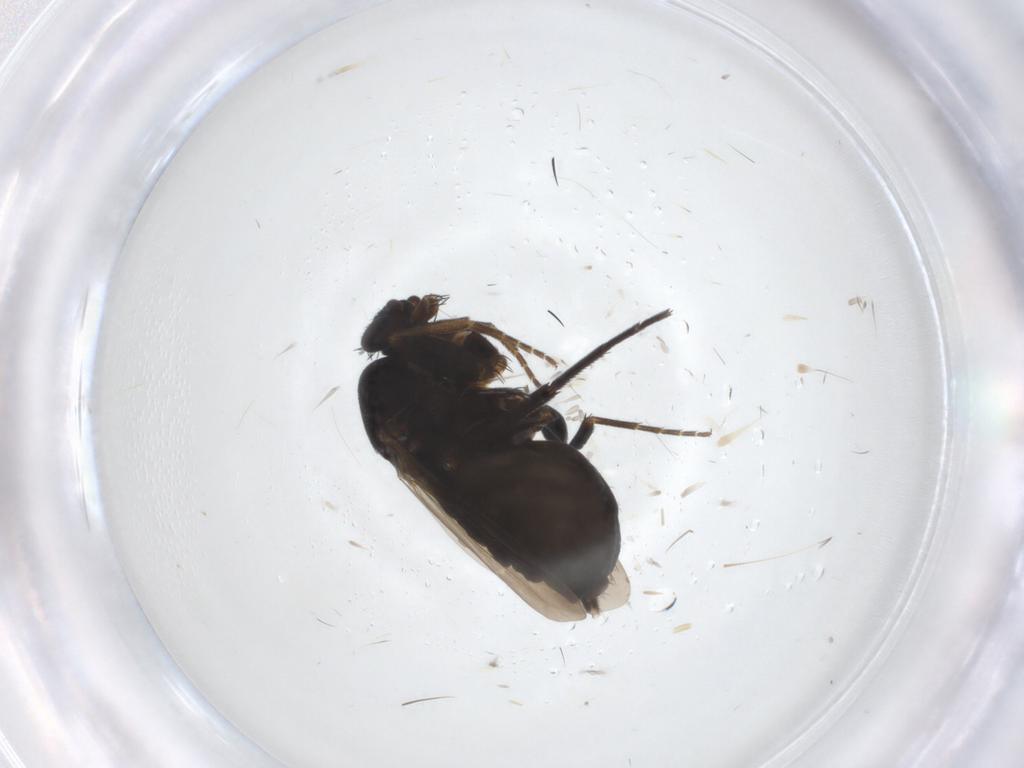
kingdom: Animalia
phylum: Arthropoda
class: Insecta
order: Diptera
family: Phoridae
